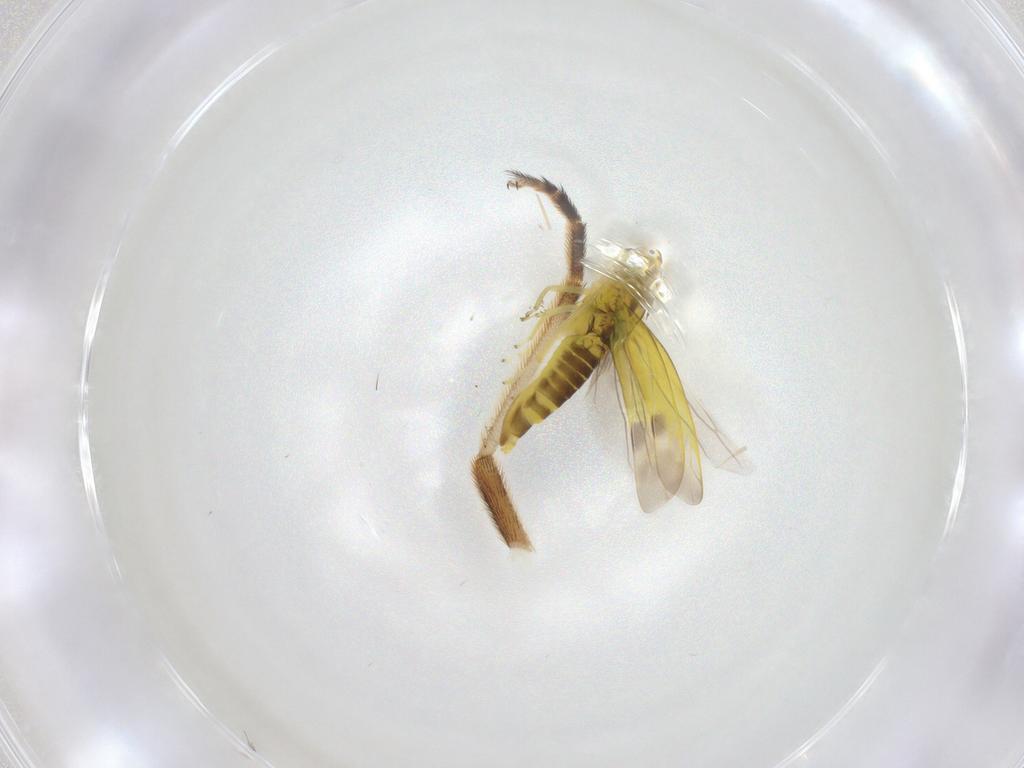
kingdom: Animalia
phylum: Arthropoda
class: Insecta
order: Hemiptera
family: Cicadellidae
